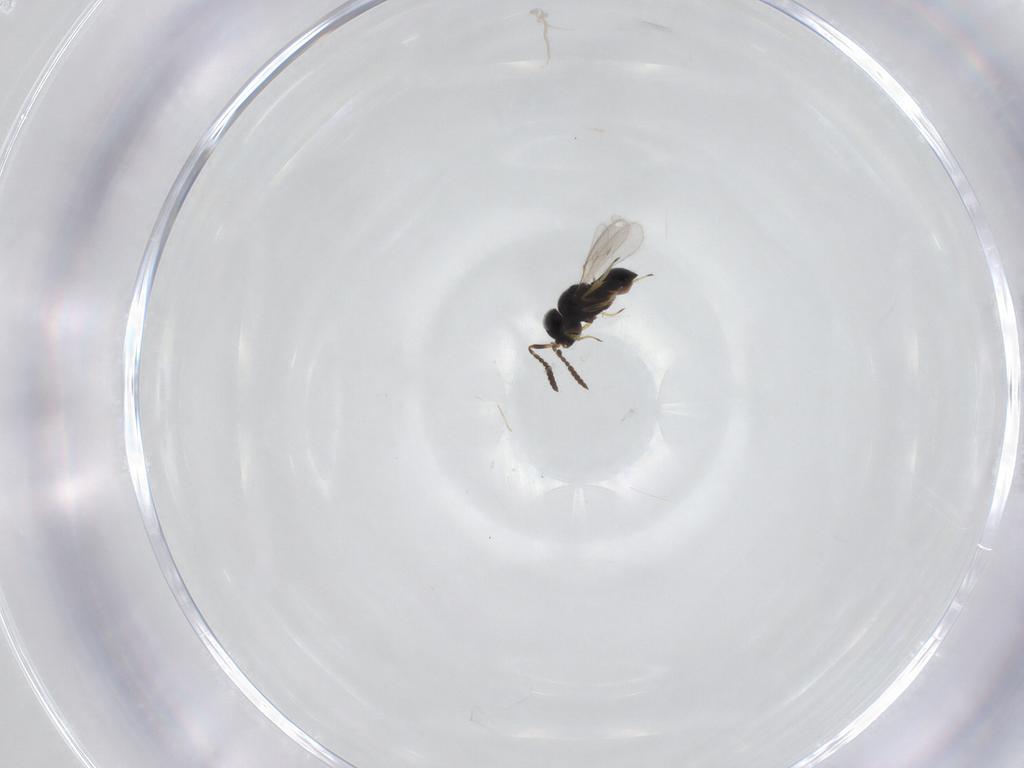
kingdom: Animalia
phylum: Arthropoda
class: Insecta
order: Hymenoptera
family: Scelionidae
